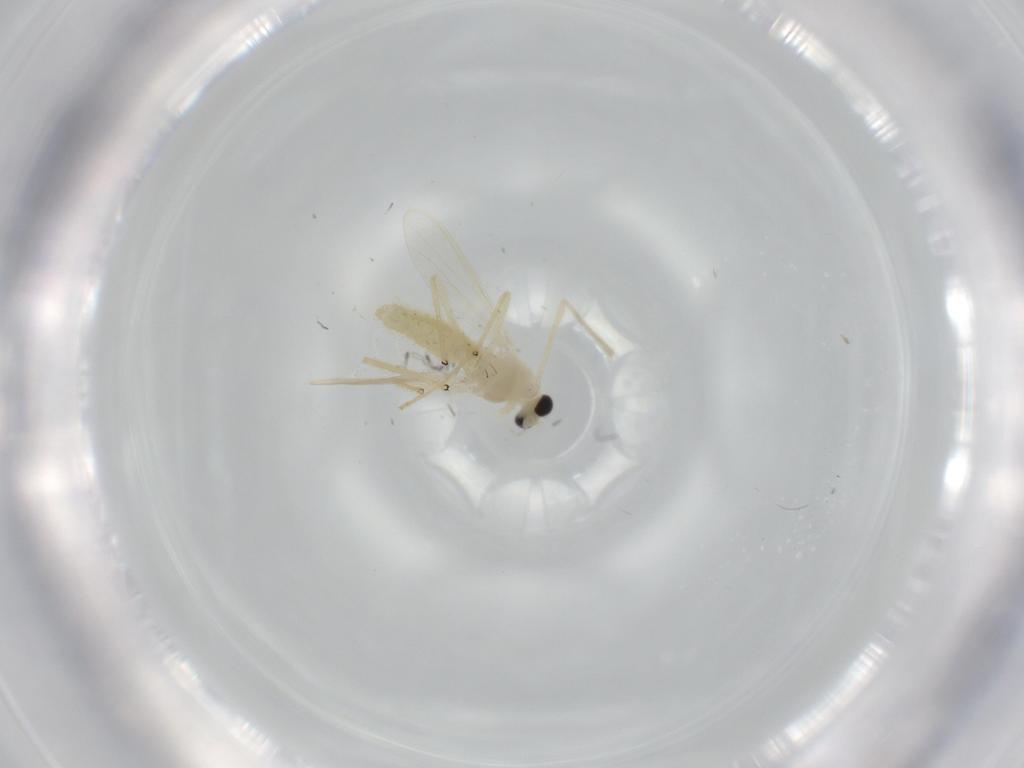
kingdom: Animalia
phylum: Arthropoda
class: Insecta
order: Diptera
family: Chironomidae
